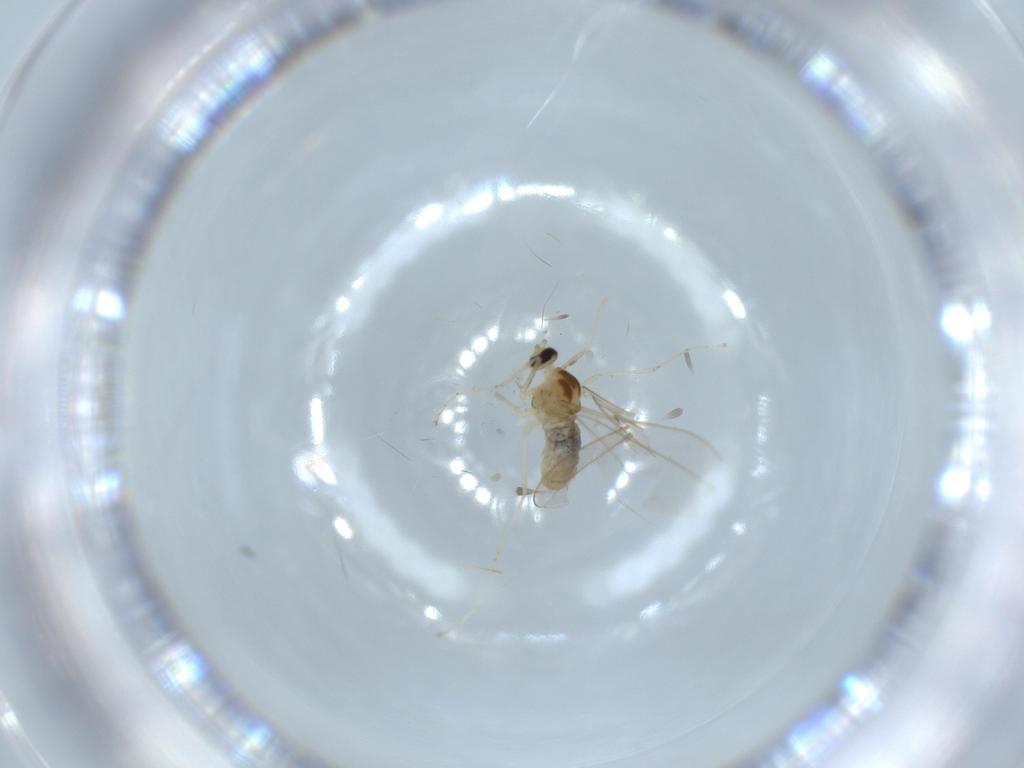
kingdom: Animalia
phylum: Arthropoda
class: Insecta
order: Diptera
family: Cecidomyiidae
